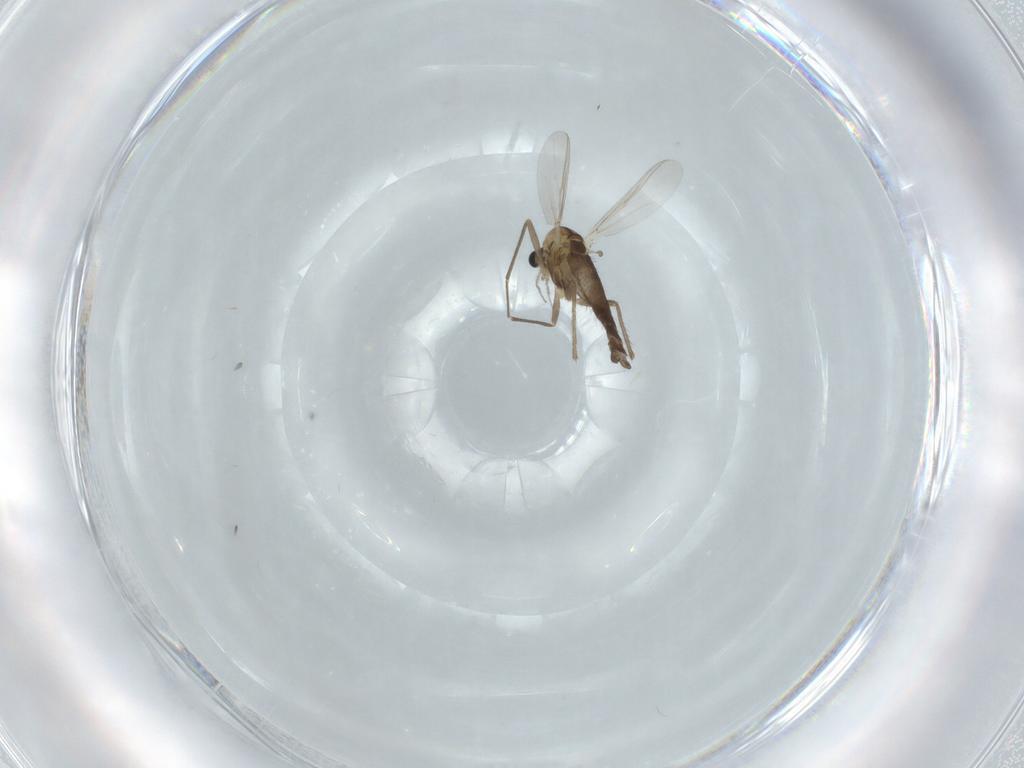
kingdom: Animalia
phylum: Arthropoda
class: Insecta
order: Diptera
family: Chironomidae
